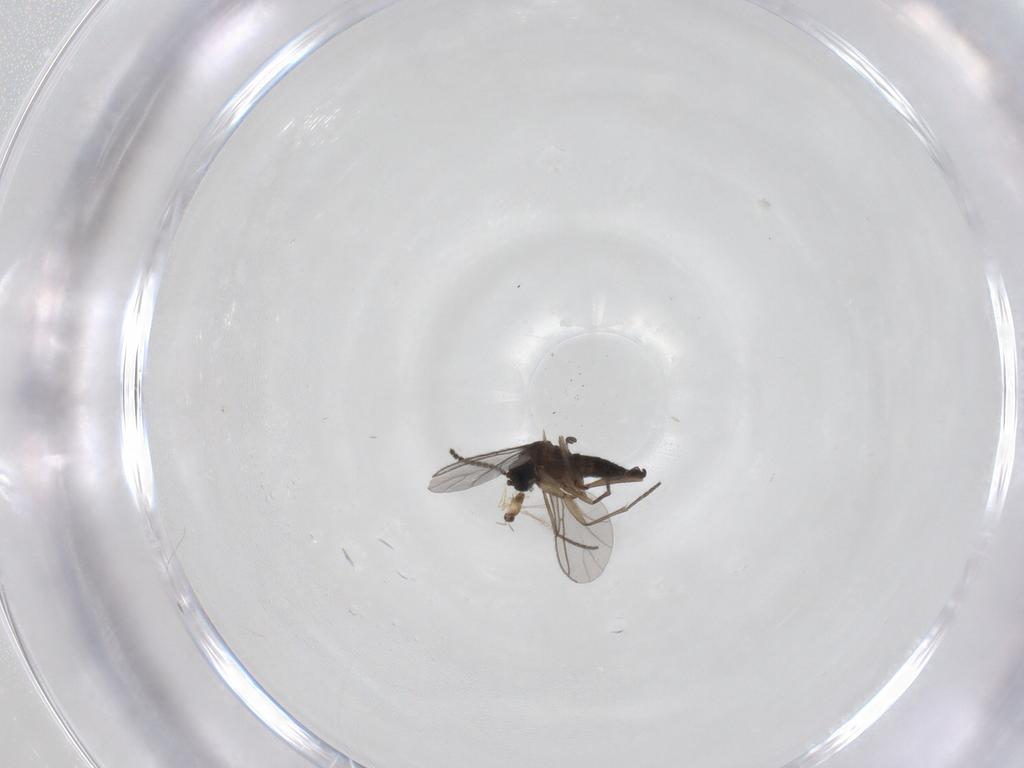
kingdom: Animalia
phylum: Arthropoda
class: Insecta
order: Diptera
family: Sciaridae
